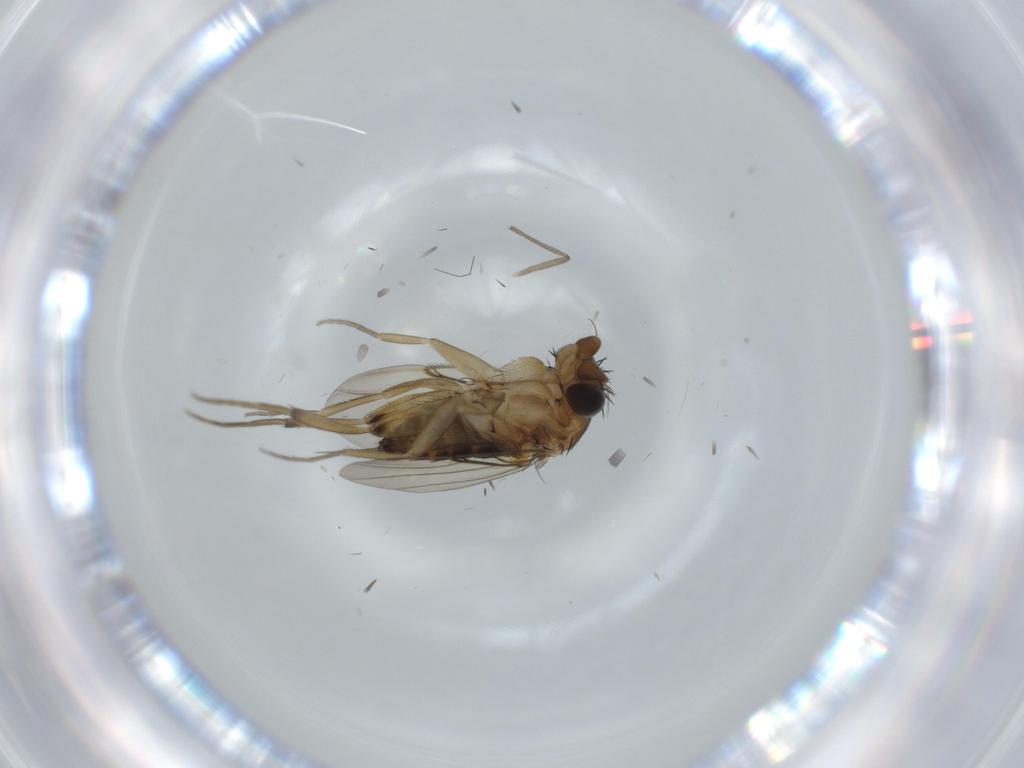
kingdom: Animalia
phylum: Arthropoda
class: Insecta
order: Diptera
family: Phoridae
